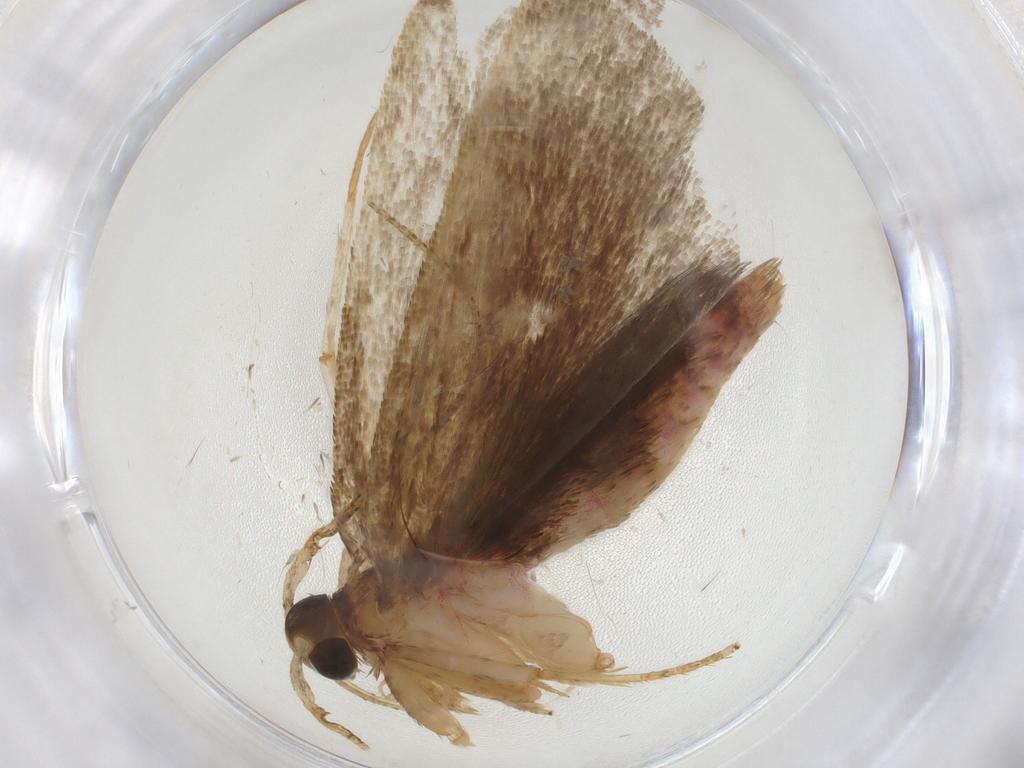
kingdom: Animalia
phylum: Arthropoda
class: Insecta
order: Lepidoptera
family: Autostichidae
